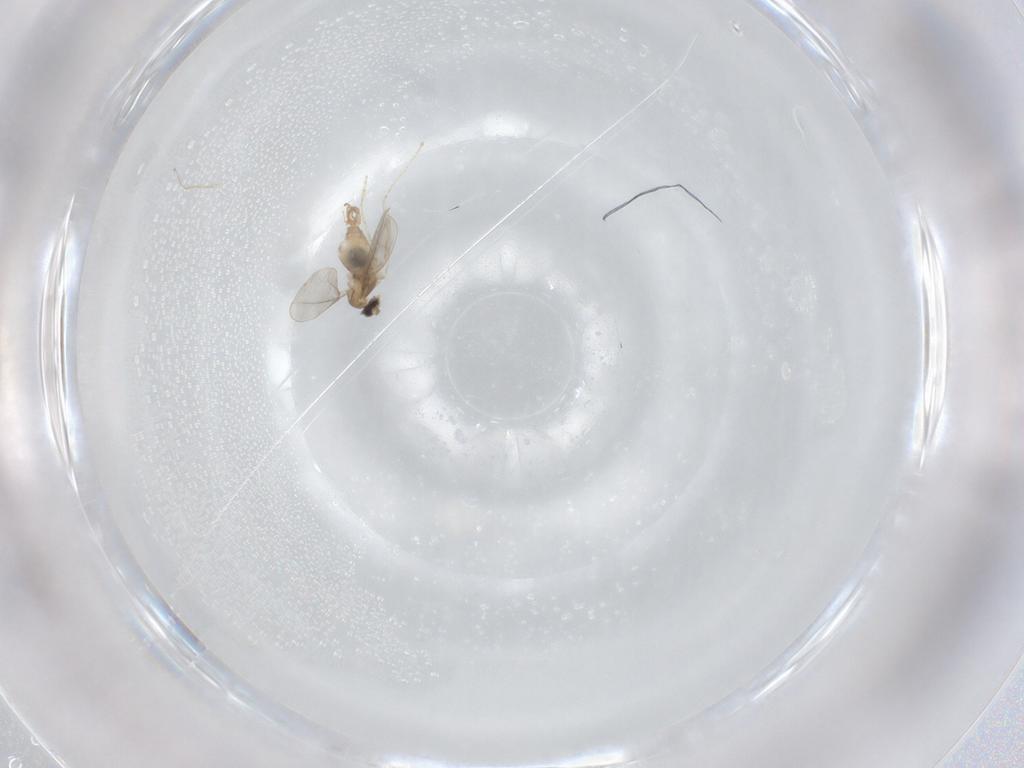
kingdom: Animalia
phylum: Arthropoda
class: Insecta
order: Diptera
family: Cecidomyiidae
